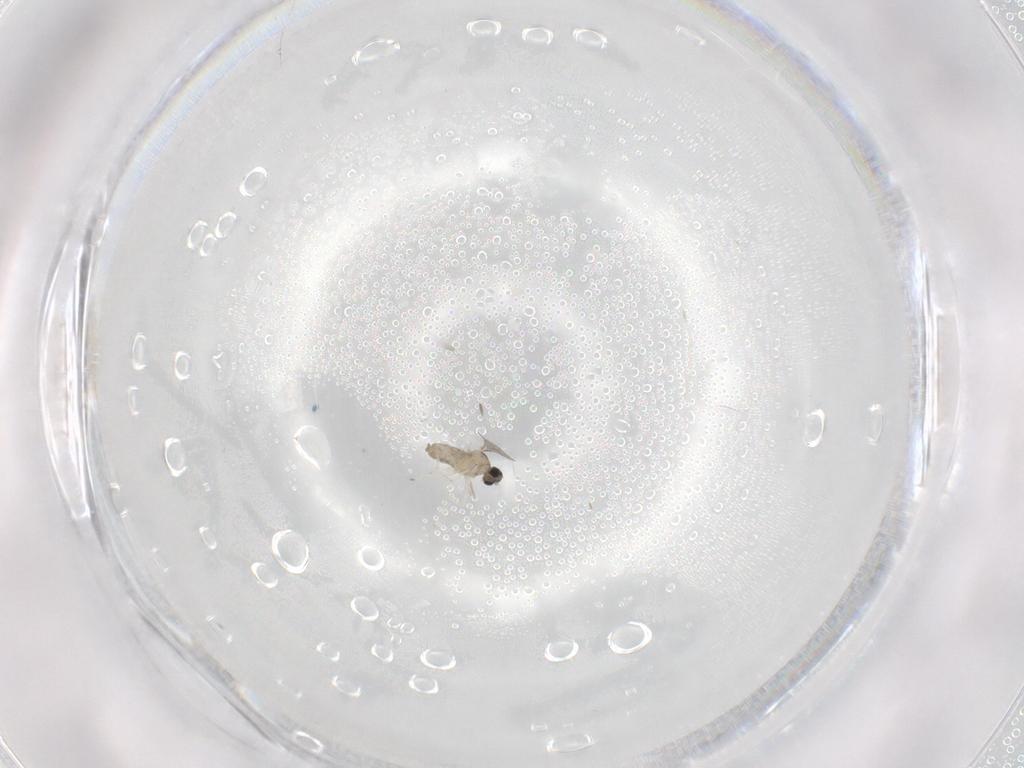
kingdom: Animalia
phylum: Arthropoda
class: Insecta
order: Diptera
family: Cecidomyiidae
